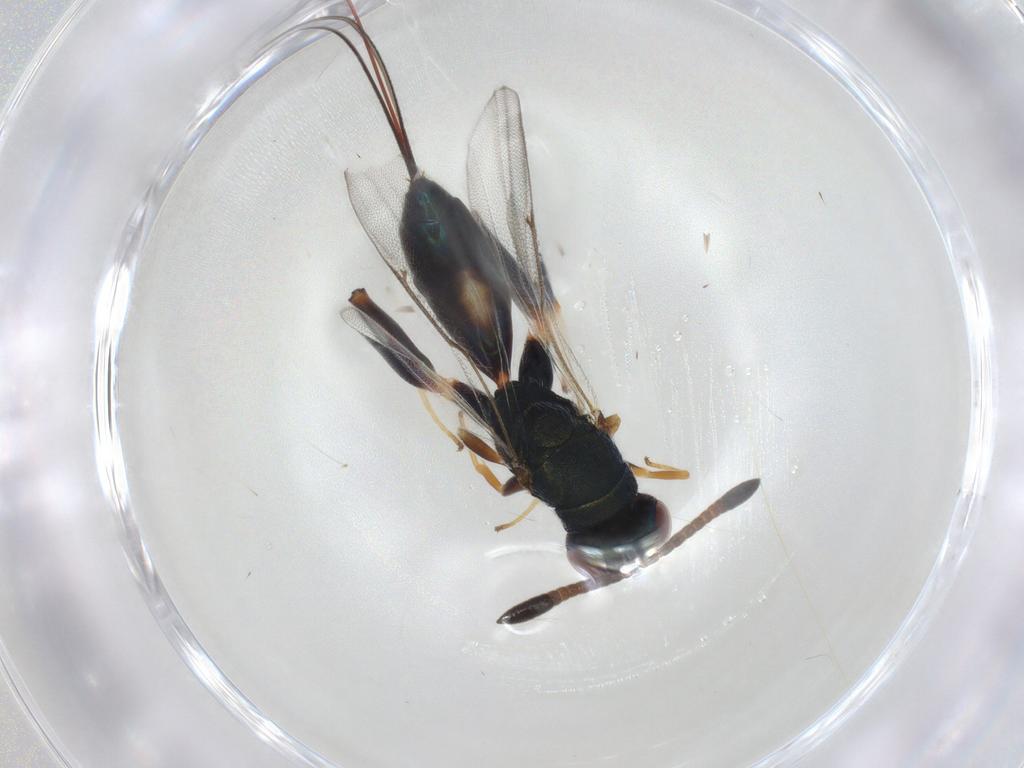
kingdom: Animalia
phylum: Arthropoda
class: Insecta
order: Hymenoptera
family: Torymidae
